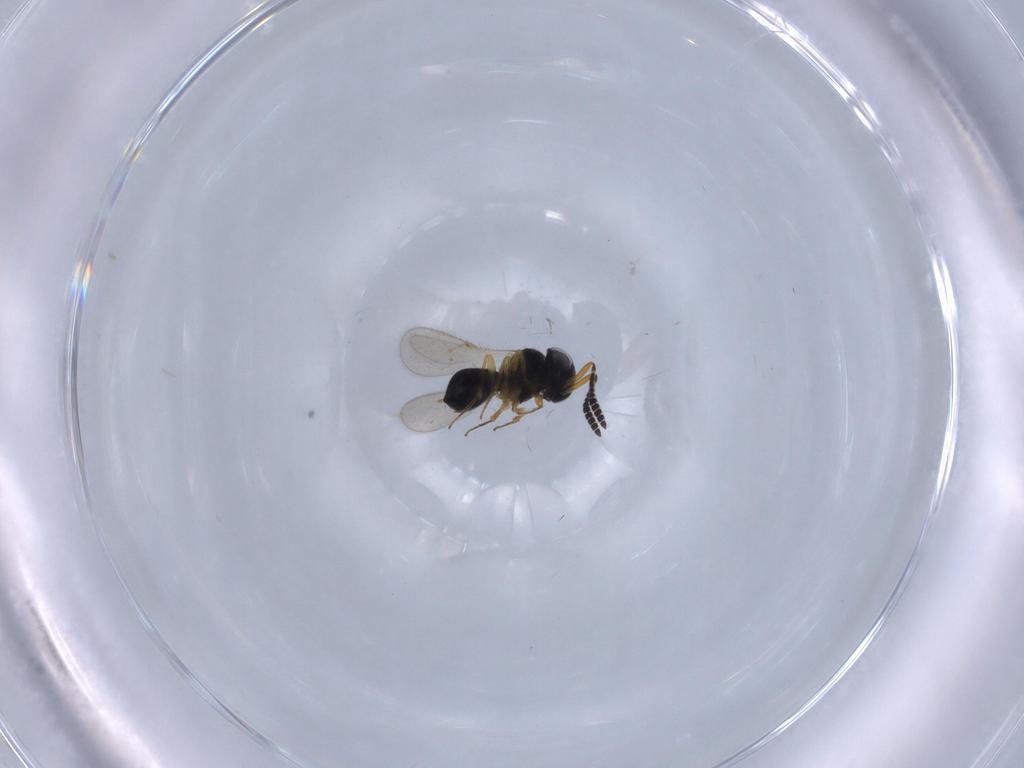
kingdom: Animalia
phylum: Arthropoda
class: Insecta
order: Hymenoptera
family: Scelionidae
